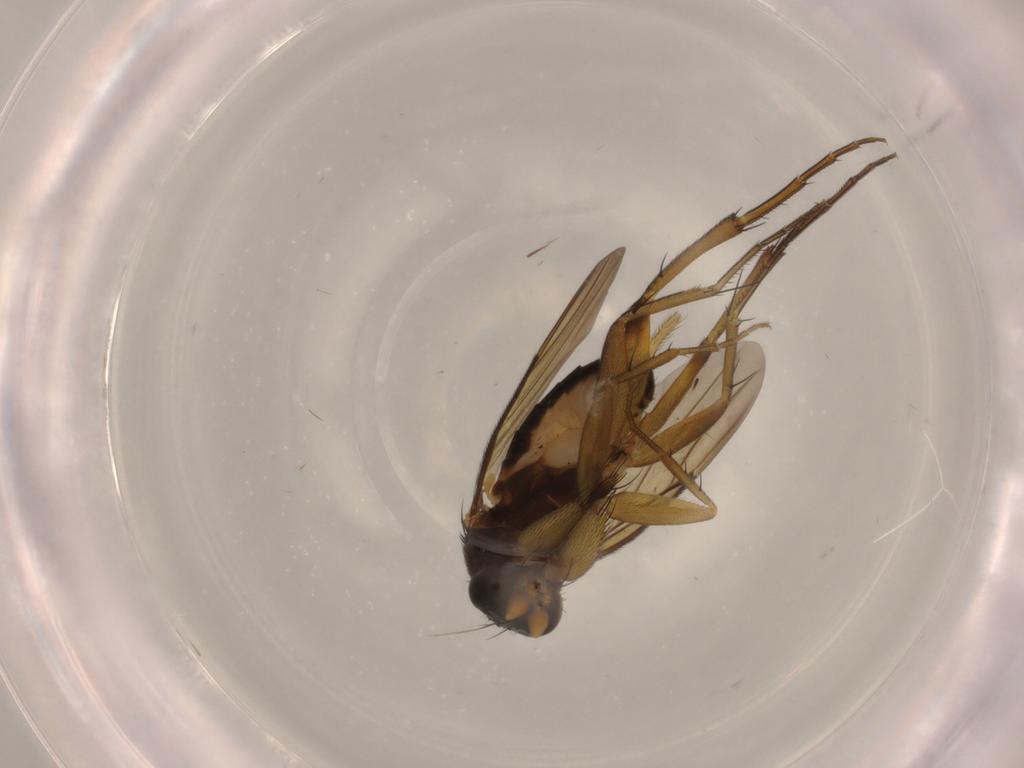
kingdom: Animalia
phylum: Arthropoda
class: Insecta
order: Diptera
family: Phoridae
